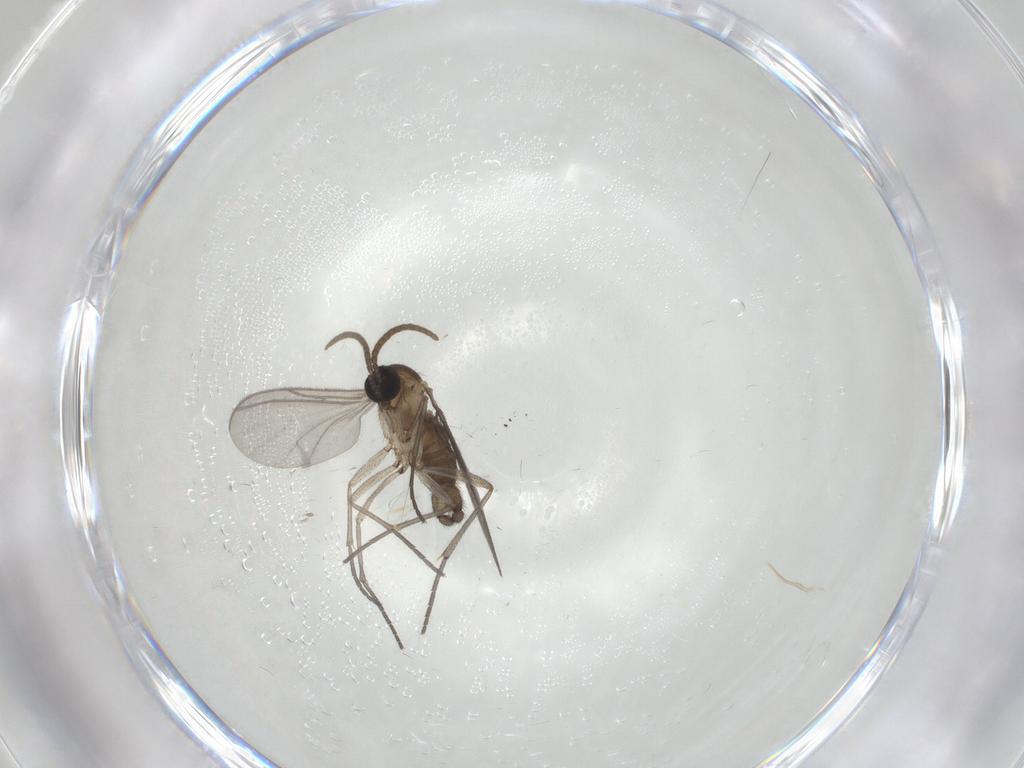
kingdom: Animalia
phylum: Arthropoda
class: Insecta
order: Diptera
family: Sciaridae
